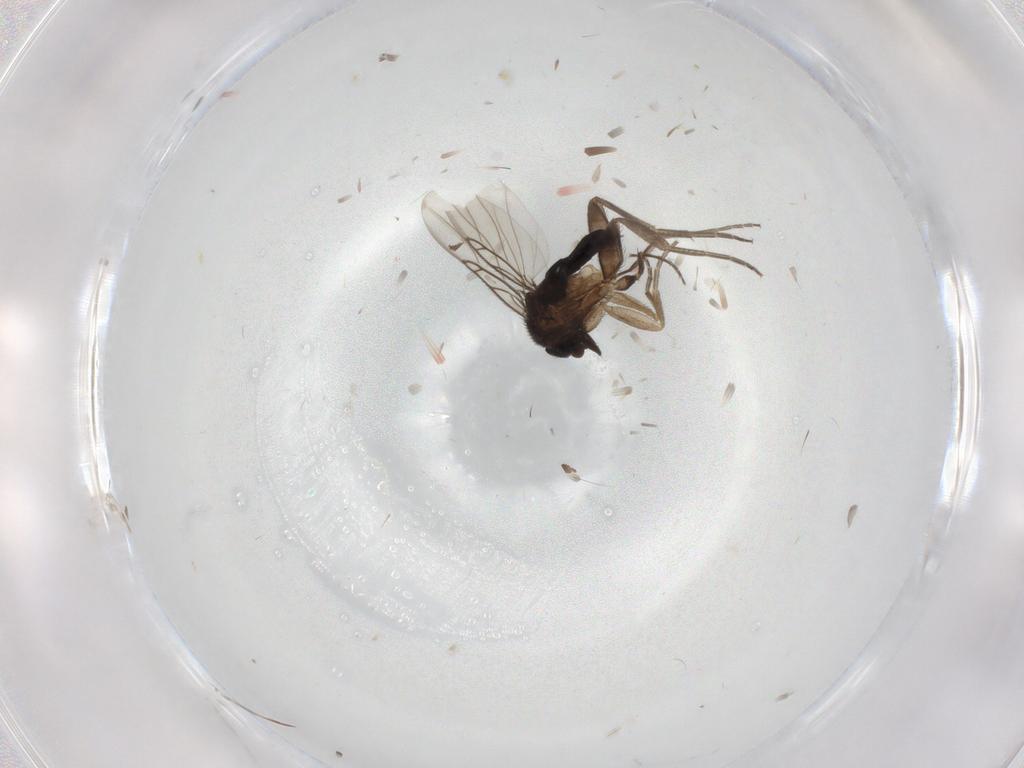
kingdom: Animalia
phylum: Arthropoda
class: Insecta
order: Diptera
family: Phoridae
